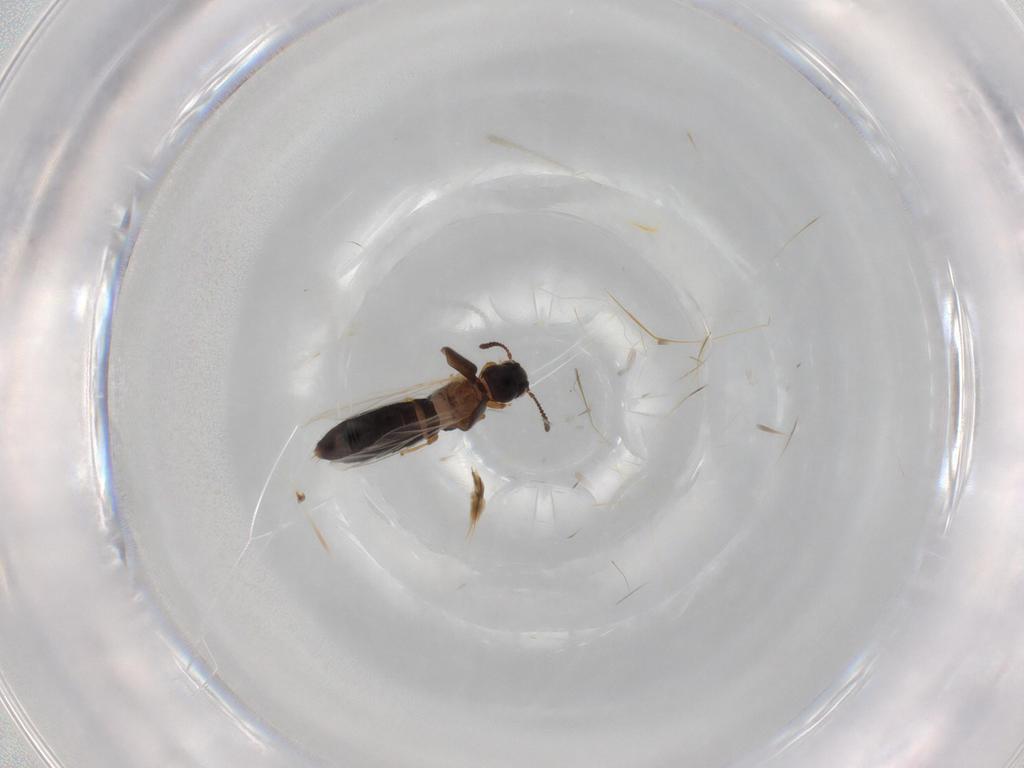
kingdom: Animalia
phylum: Arthropoda
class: Insecta
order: Coleoptera
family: Staphylinidae
